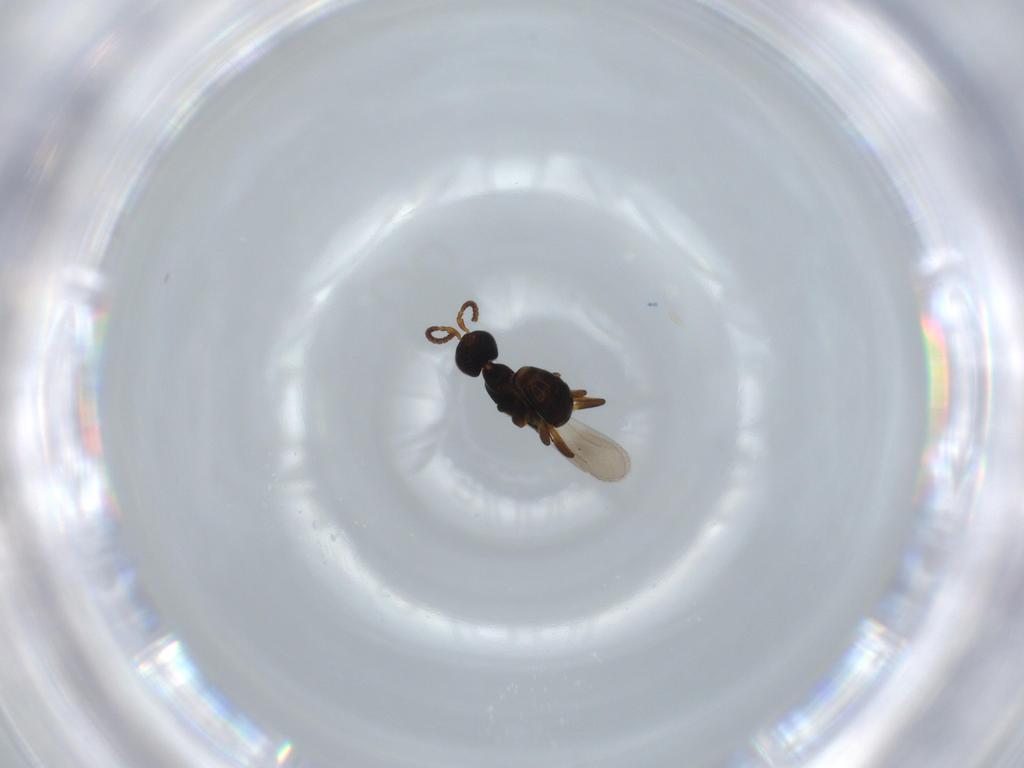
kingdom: Animalia
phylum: Arthropoda
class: Insecta
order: Hymenoptera
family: Bethylidae
